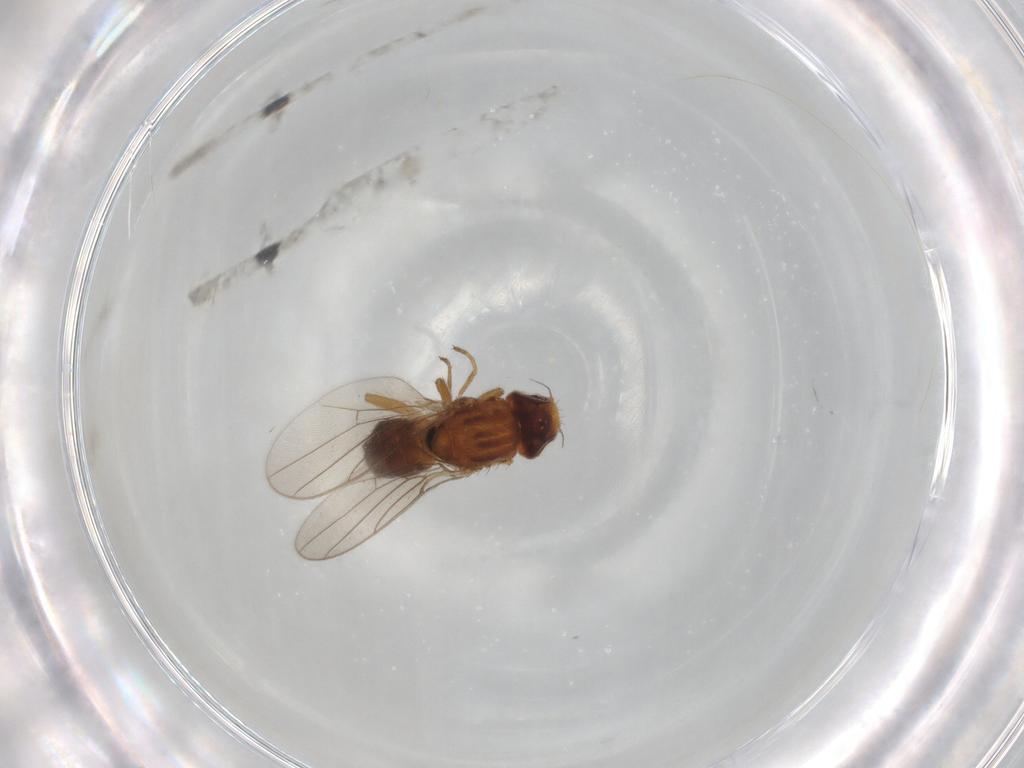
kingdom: Animalia
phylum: Arthropoda
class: Insecta
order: Diptera
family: Chloropidae
